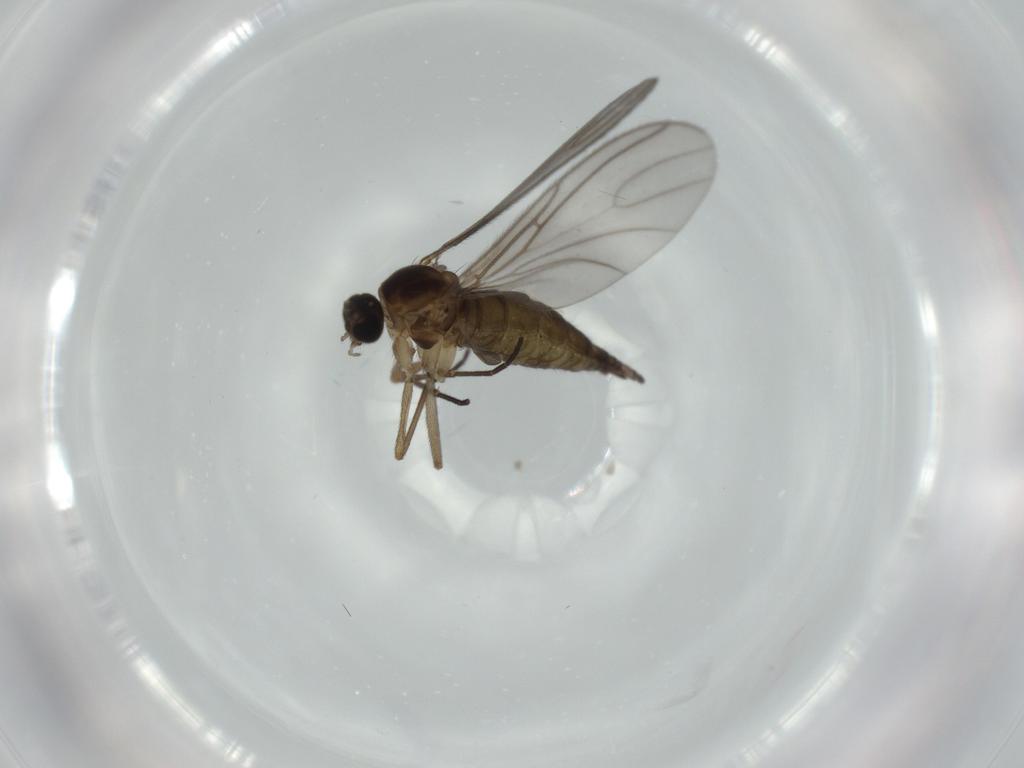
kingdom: Animalia
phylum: Arthropoda
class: Insecta
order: Diptera
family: Sciaridae
